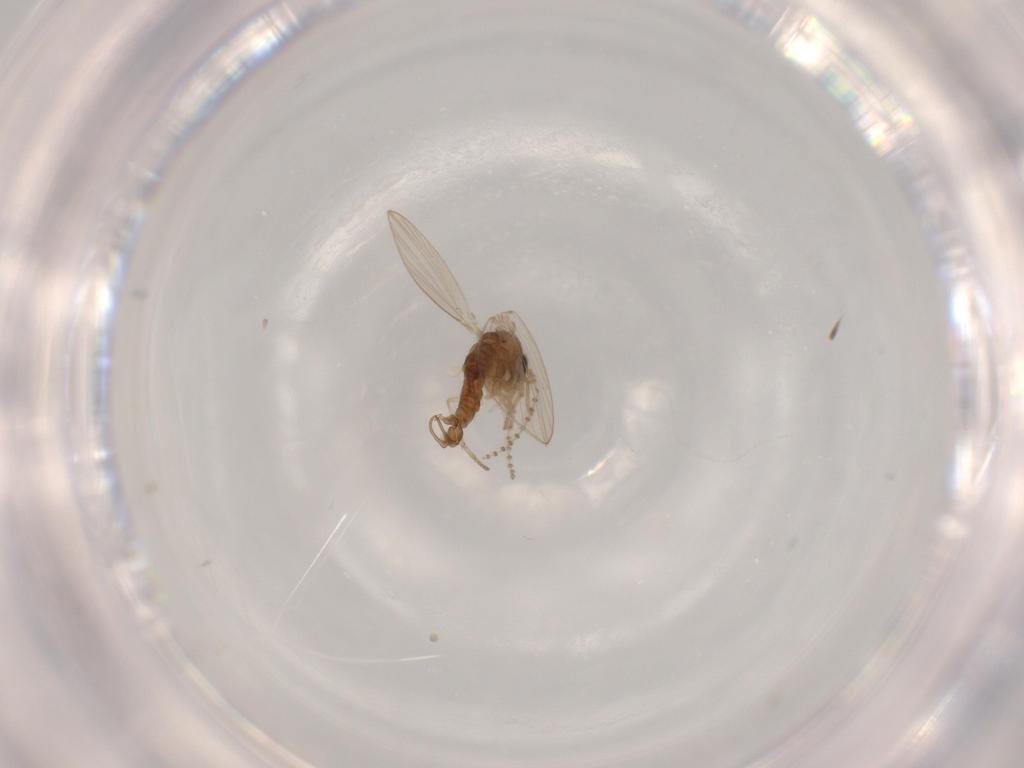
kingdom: Animalia
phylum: Arthropoda
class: Insecta
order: Diptera
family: Psychodidae
